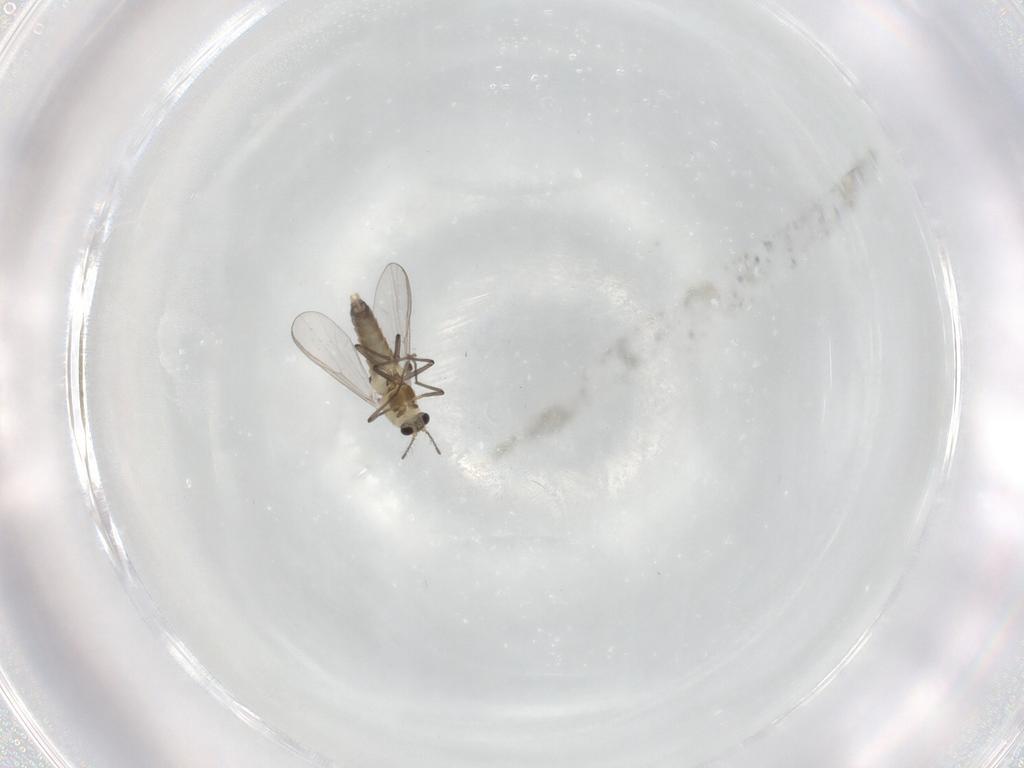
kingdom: Animalia
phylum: Arthropoda
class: Insecta
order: Diptera
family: Chironomidae
